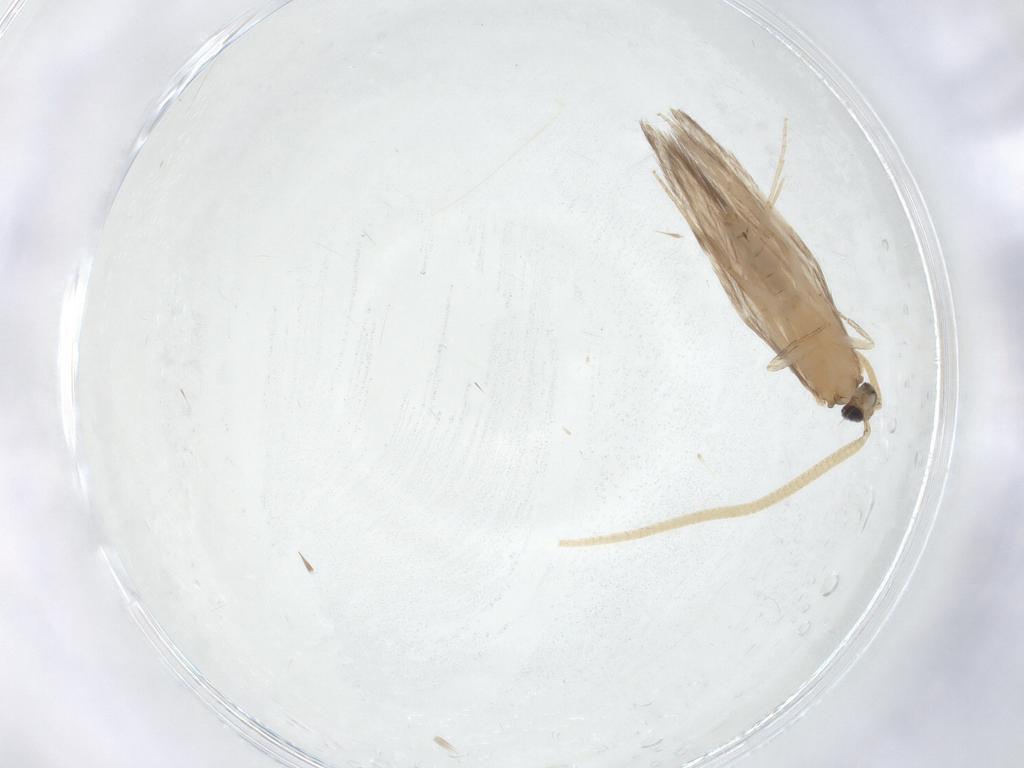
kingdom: Animalia
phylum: Arthropoda
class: Insecta
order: Trichoptera
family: Hydroptilidae
